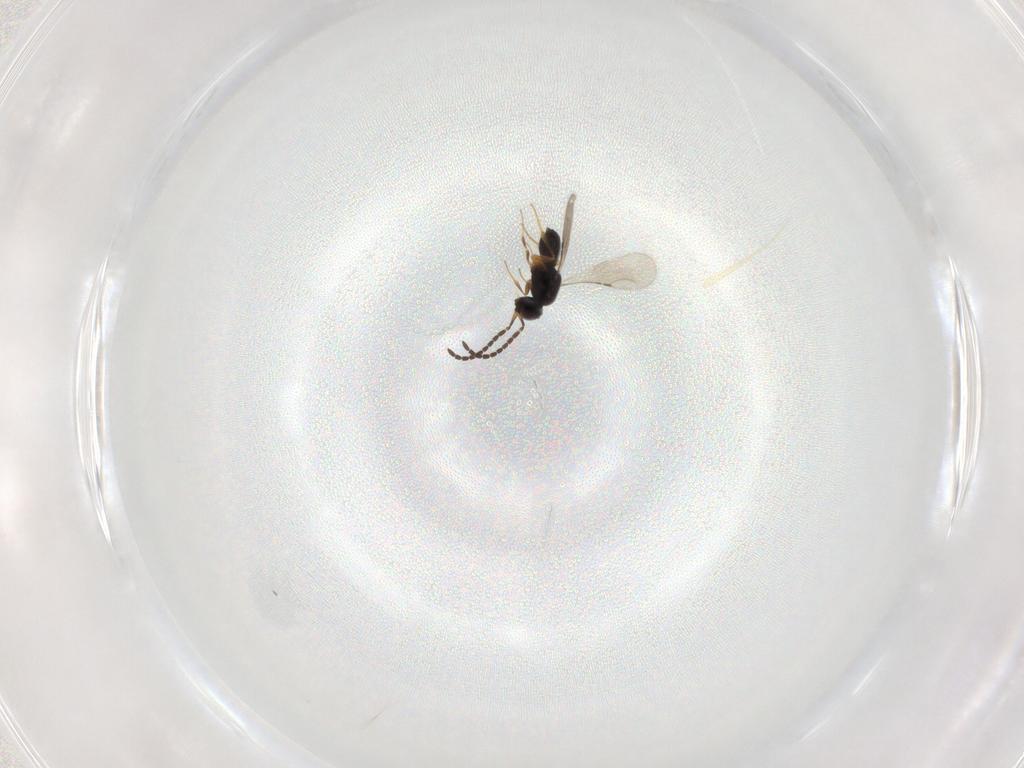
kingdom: Animalia
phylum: Arthropoda
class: Insecta
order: Hymenoptera
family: Ceraphronidae
